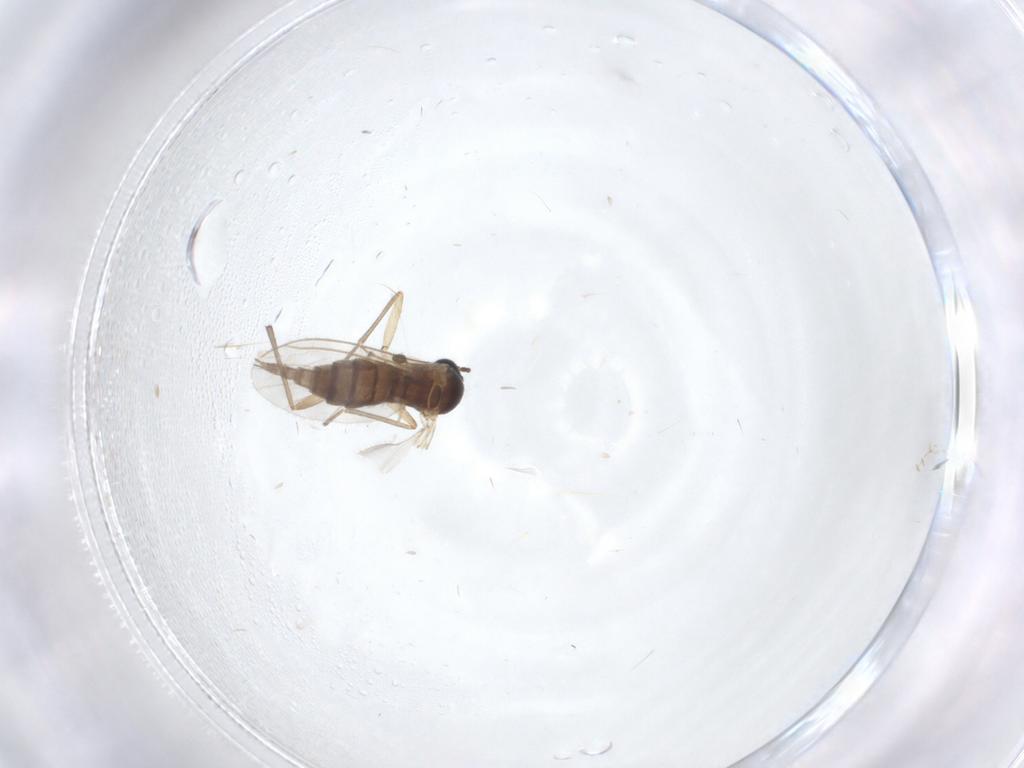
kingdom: Animalia
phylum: Arthropoda
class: Insecta
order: Diptera
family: Sciaridae
